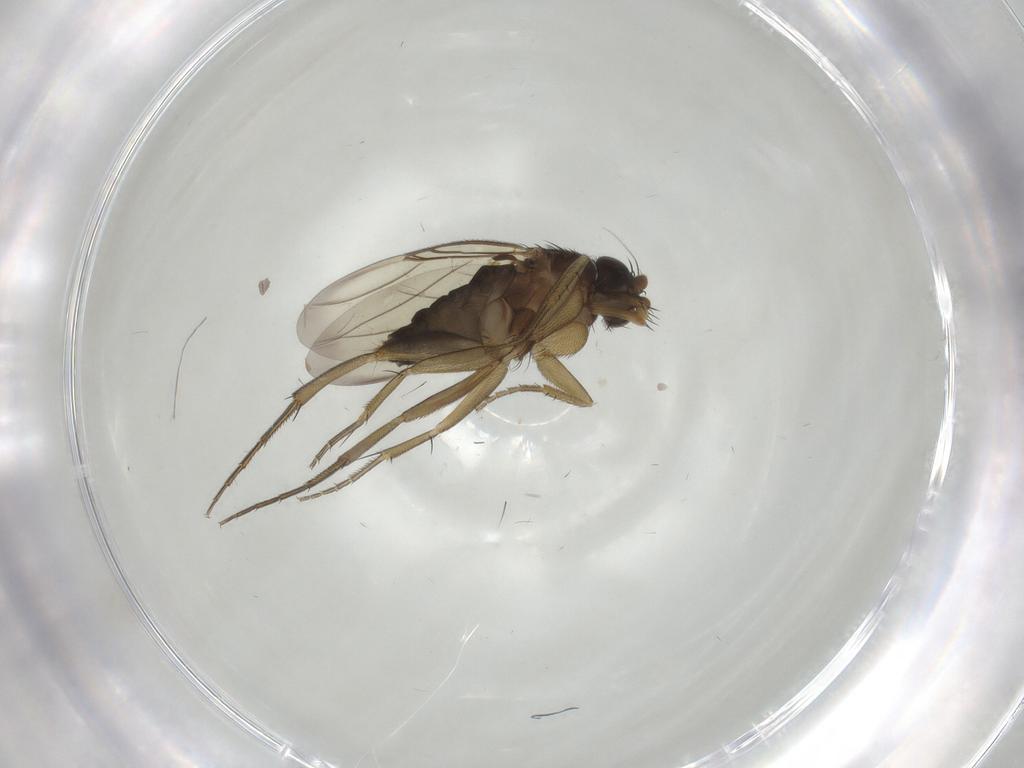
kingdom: Animalia
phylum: Arthropoda
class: Insecta
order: Diptera
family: Phoridae
